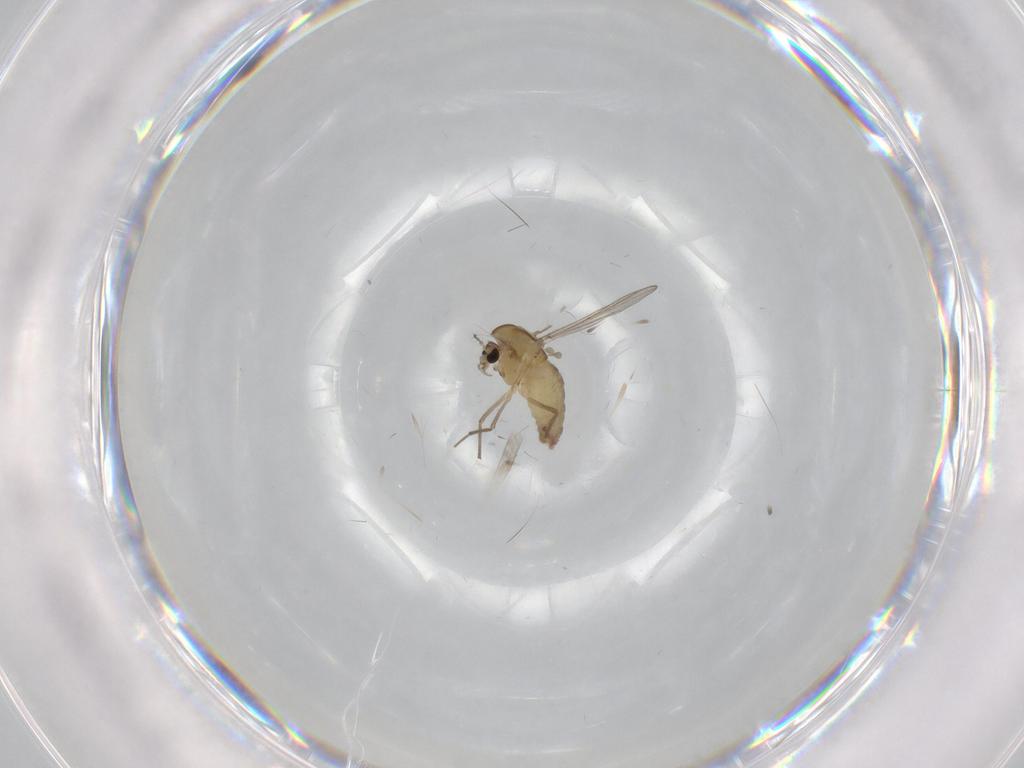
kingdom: Animalia
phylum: Arthropoda
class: Insecta
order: Diptera
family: Chironomidae
